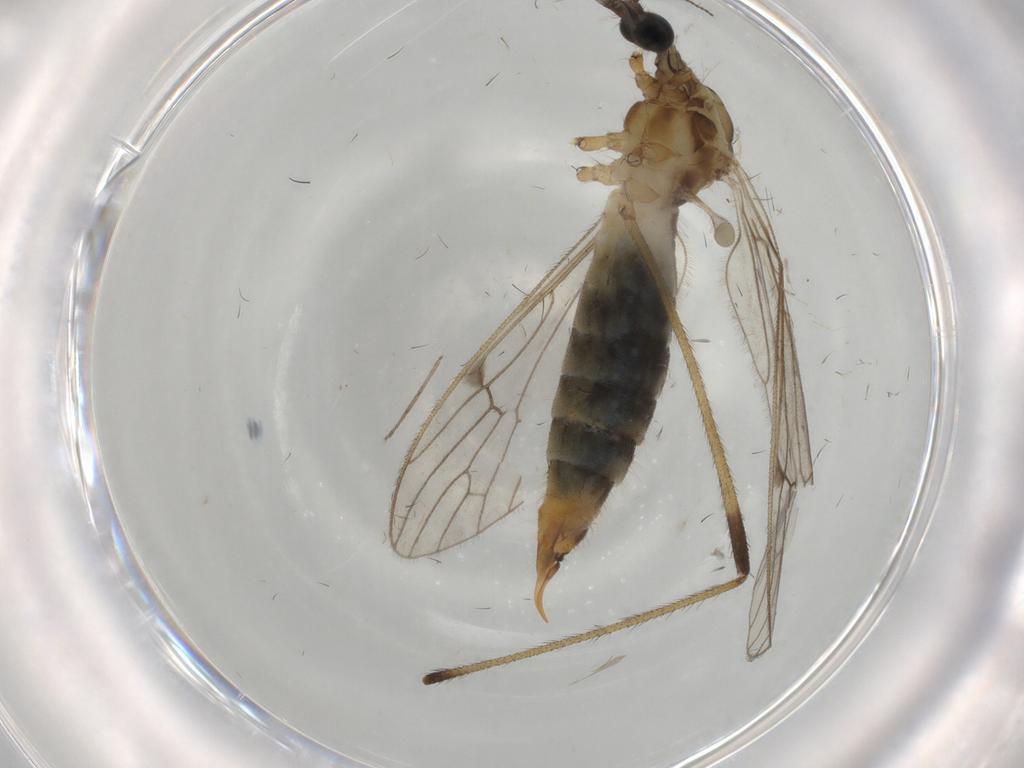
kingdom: Animalia
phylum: Arthropoda
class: Insecta
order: Diptera
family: Limoniidae
